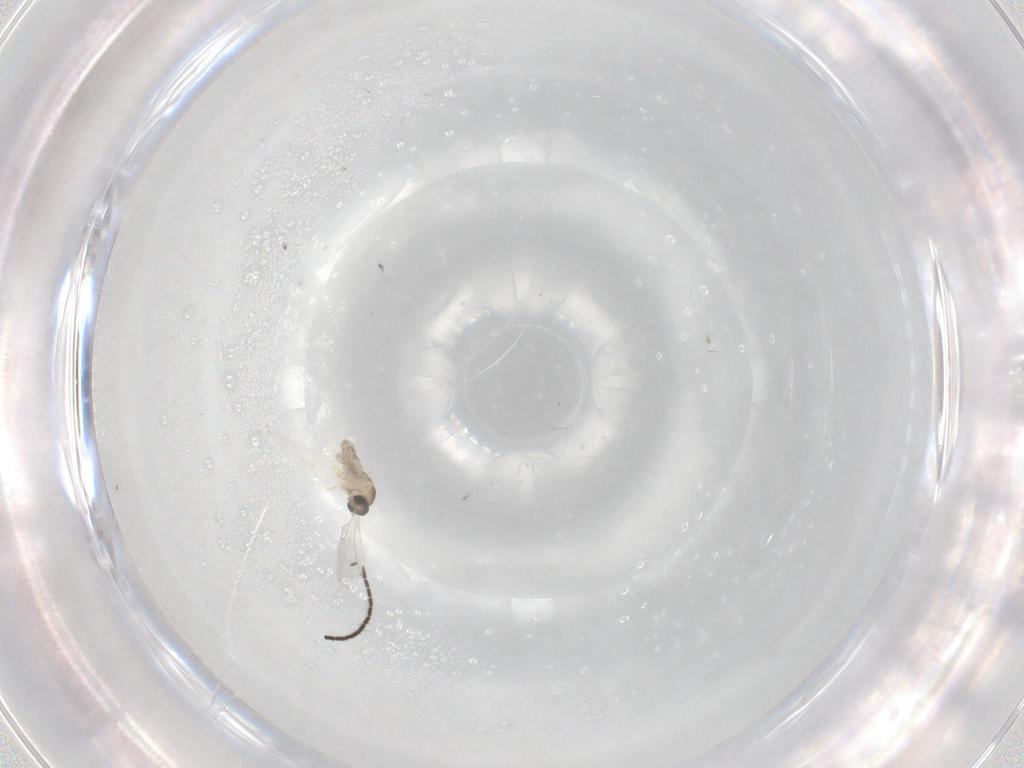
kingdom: Animalia
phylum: Arthropoda
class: Insecta
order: Diptera
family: Cecidomyiidae
